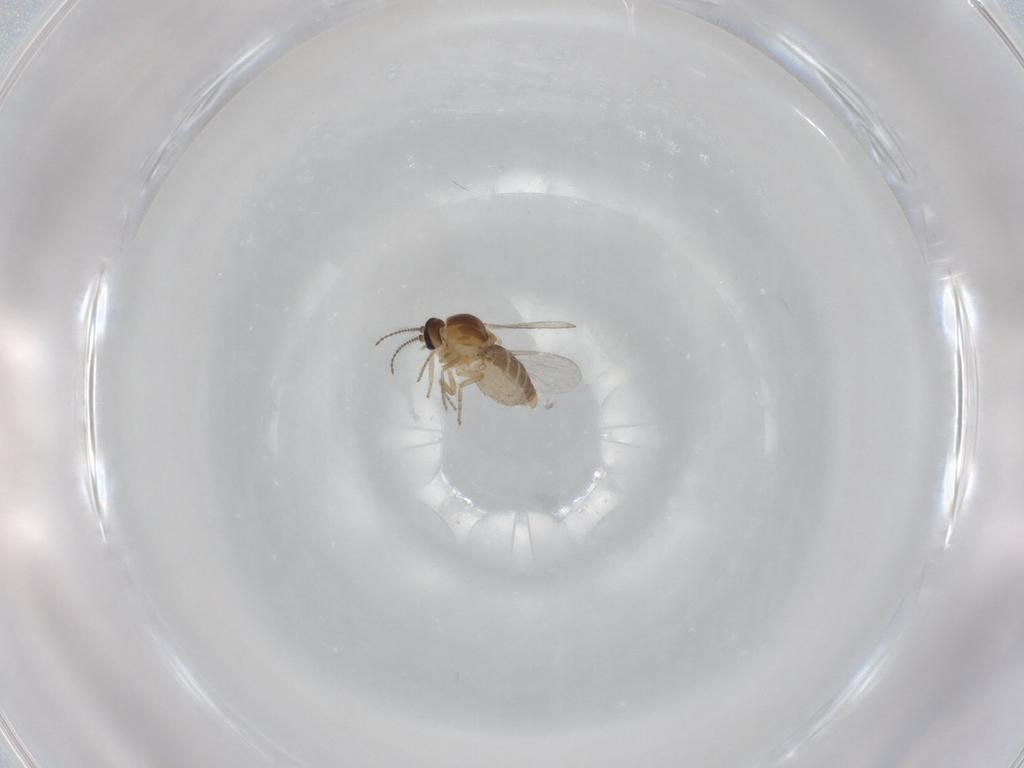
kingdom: Animalia
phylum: Arthropoda
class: Insecta
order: Diptera
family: Ceratopogonidae
